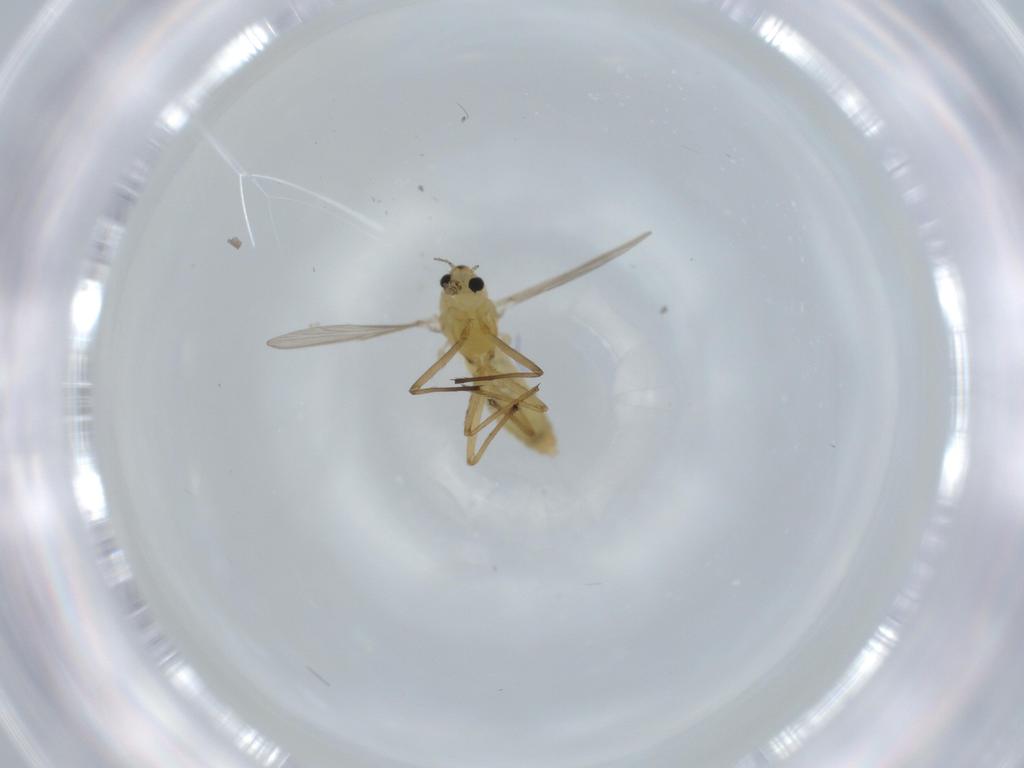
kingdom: Animalia
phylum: Arthropoda
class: Insecta
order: Diptera
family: Chironomidae
